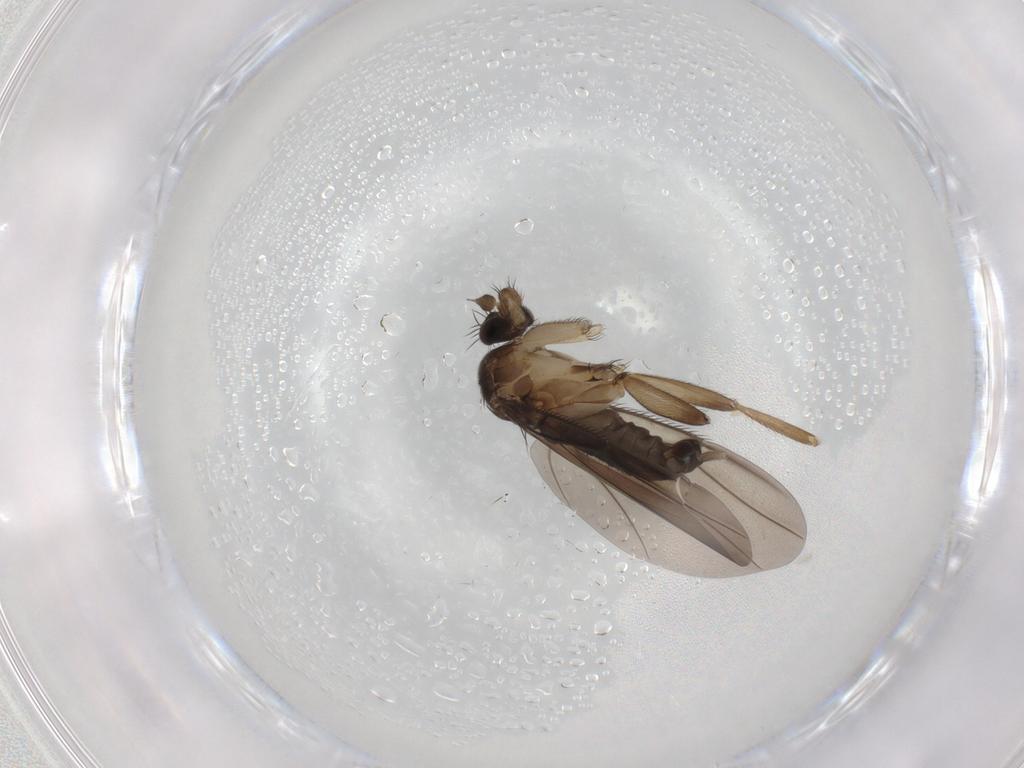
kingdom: Animalia
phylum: Arthropoda
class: Insecta
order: Diptera
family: Phoridae
